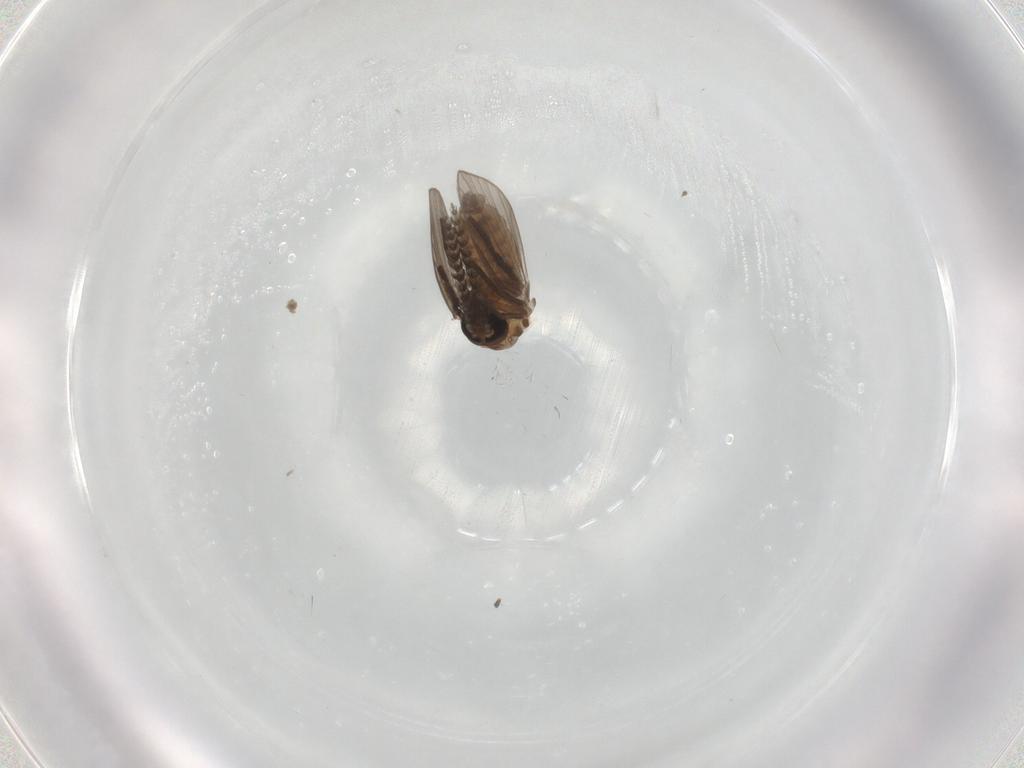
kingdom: Animalia
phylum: Arthropoda
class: Insecta
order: Diptera
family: Psychodidae
